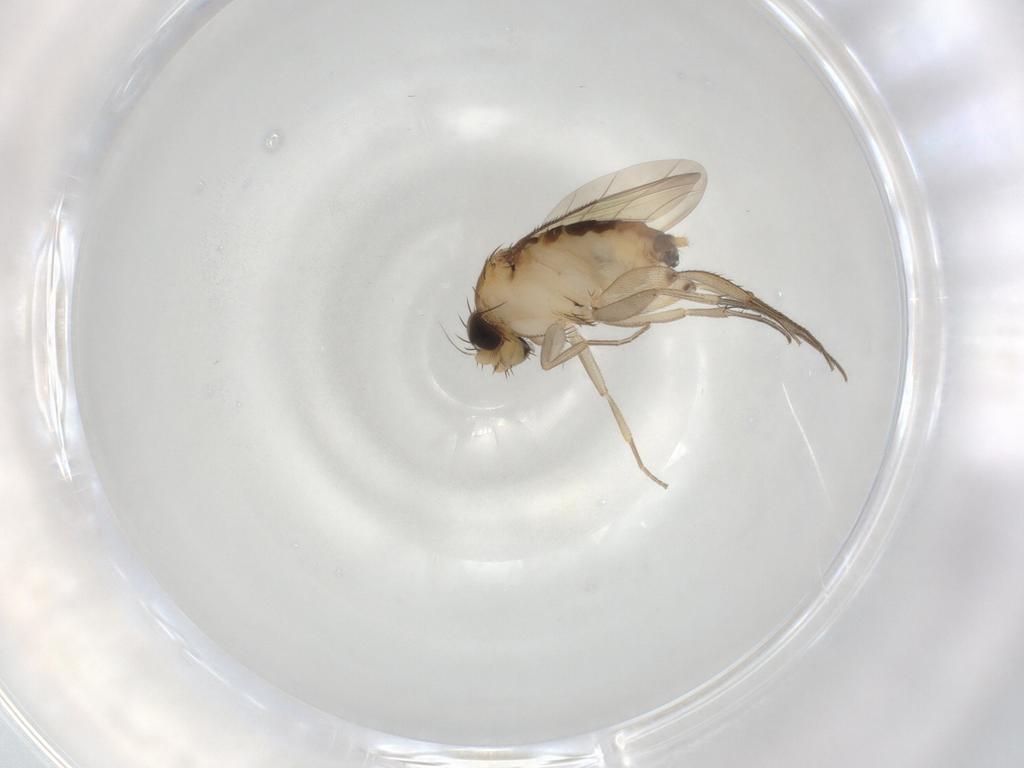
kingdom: Animalia
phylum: Arthropoda
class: Insecta
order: Diptera
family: Phoridae
